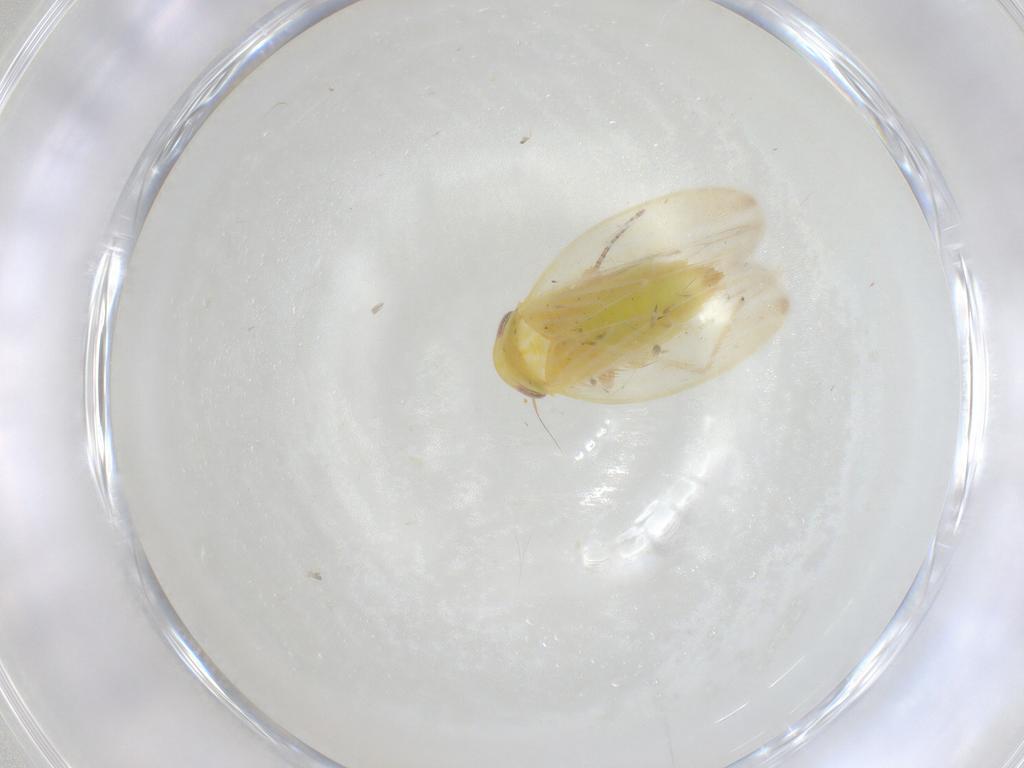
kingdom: Animalia
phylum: Arthropoda
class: Insecta
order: Hemiptera
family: Cicadellidae
